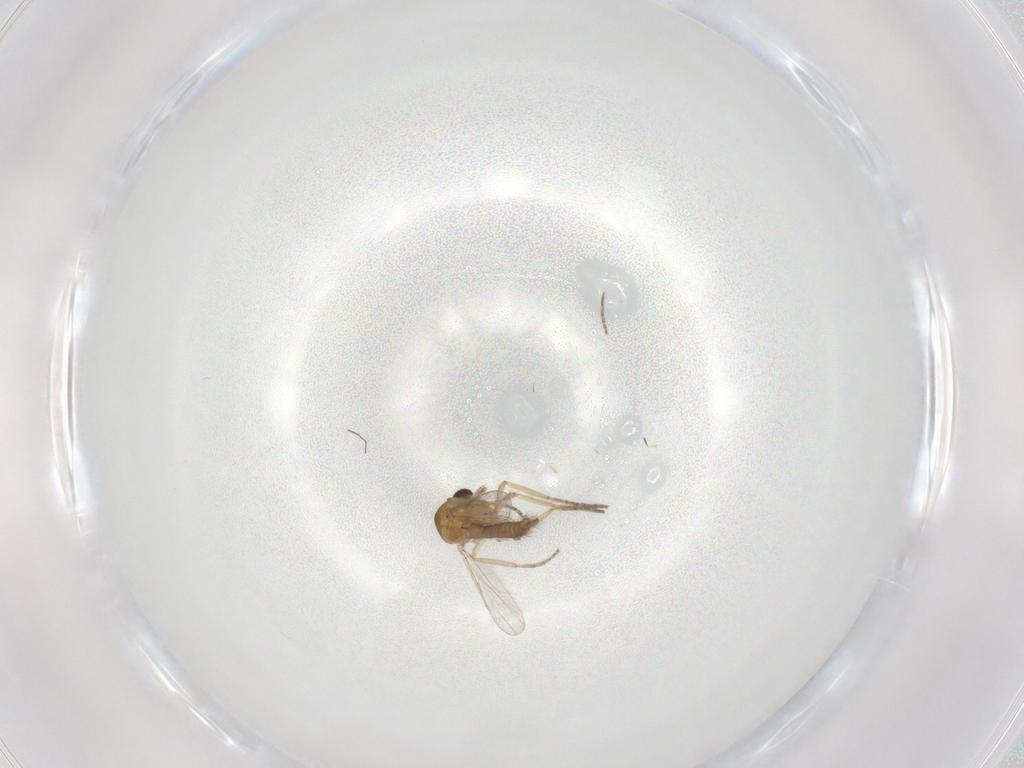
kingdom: Animalia
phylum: Arthropoda
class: Insecta
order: Diptera
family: Ceratopogonidae
